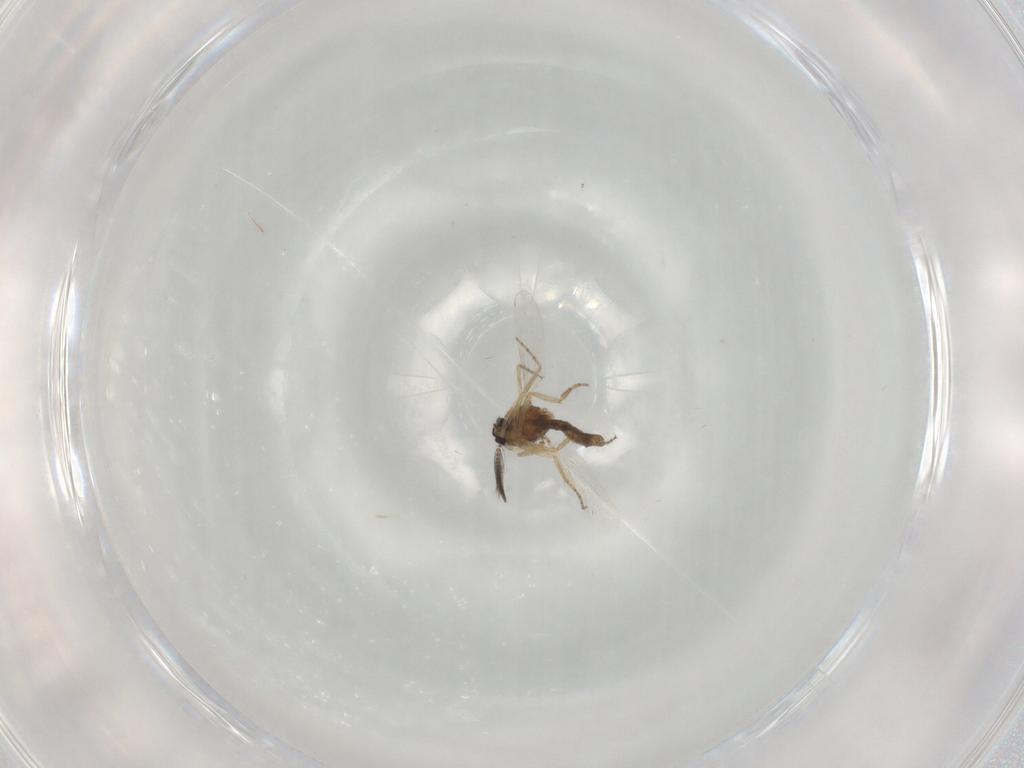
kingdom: Animalia
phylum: Arthropoda
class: Insecta
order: Diptera
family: Ceratopogonidae
